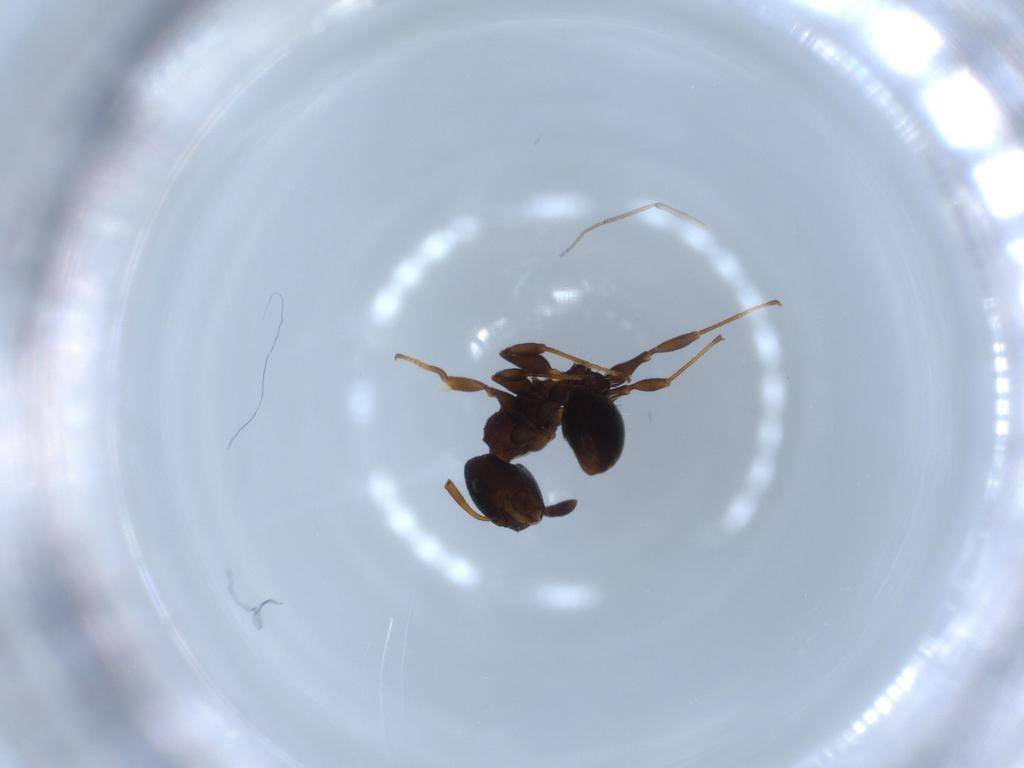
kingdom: Animalia
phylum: Arthropoda
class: Collembola
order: Symphypleona
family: Sminthurididae
